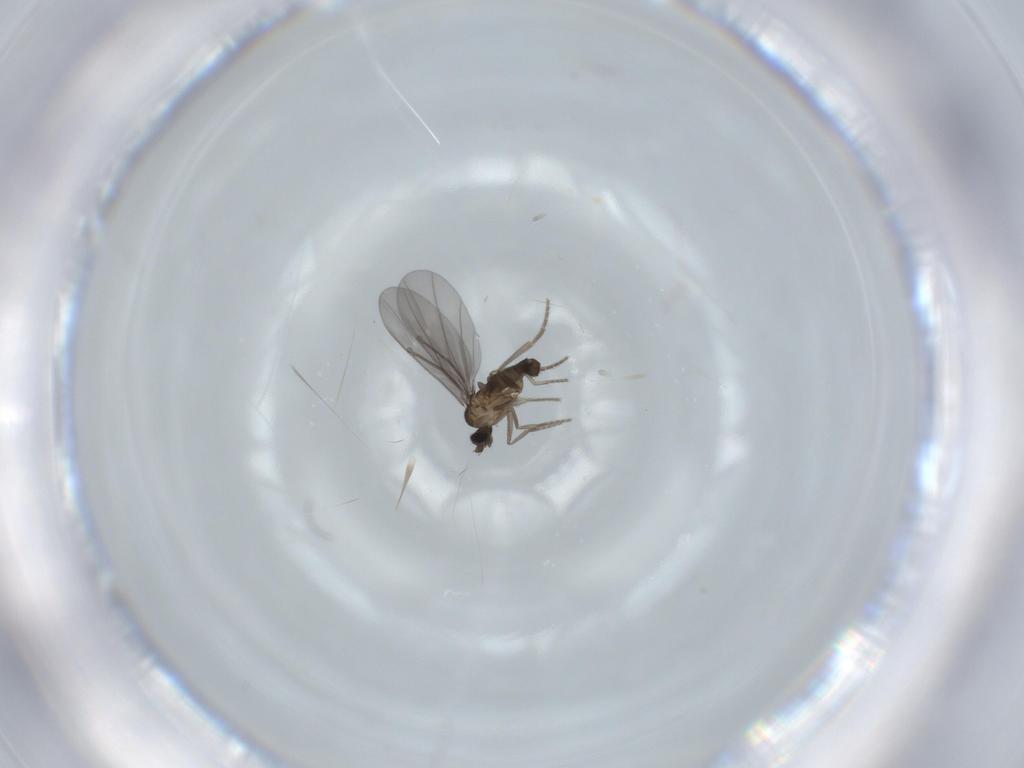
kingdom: Animalia
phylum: Arthropoda
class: Insecta
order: Diptera
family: Phoridae
